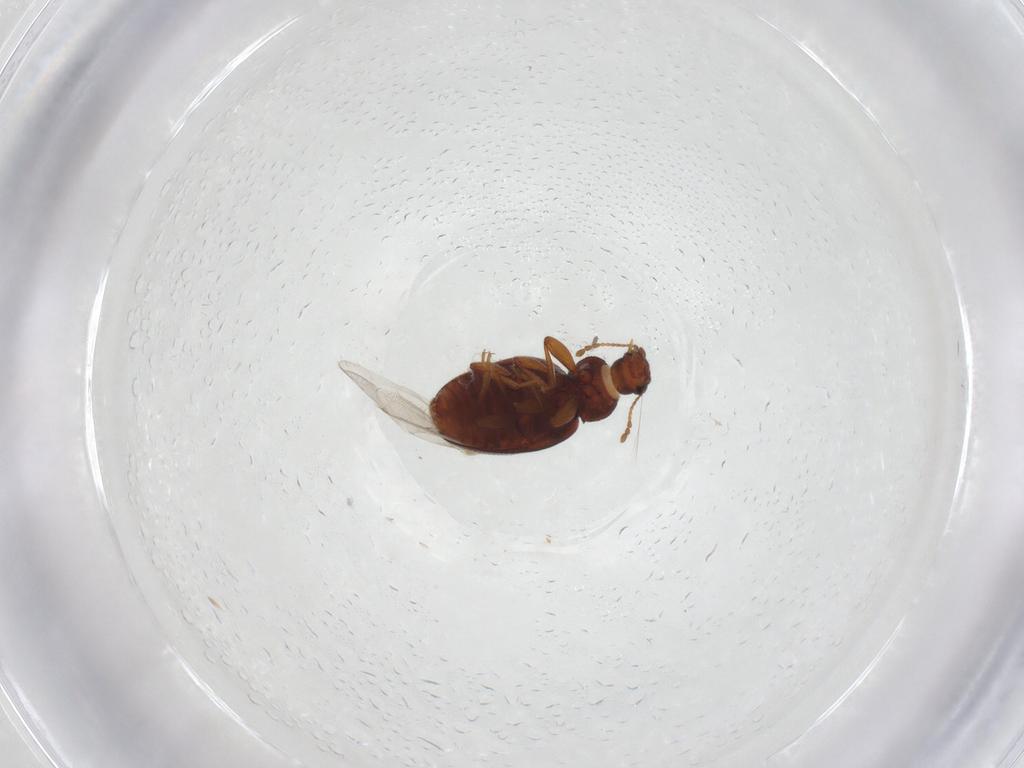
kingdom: Animalia
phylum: Arthropoda
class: Insecta
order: Coleoptera
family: Latridiidae
